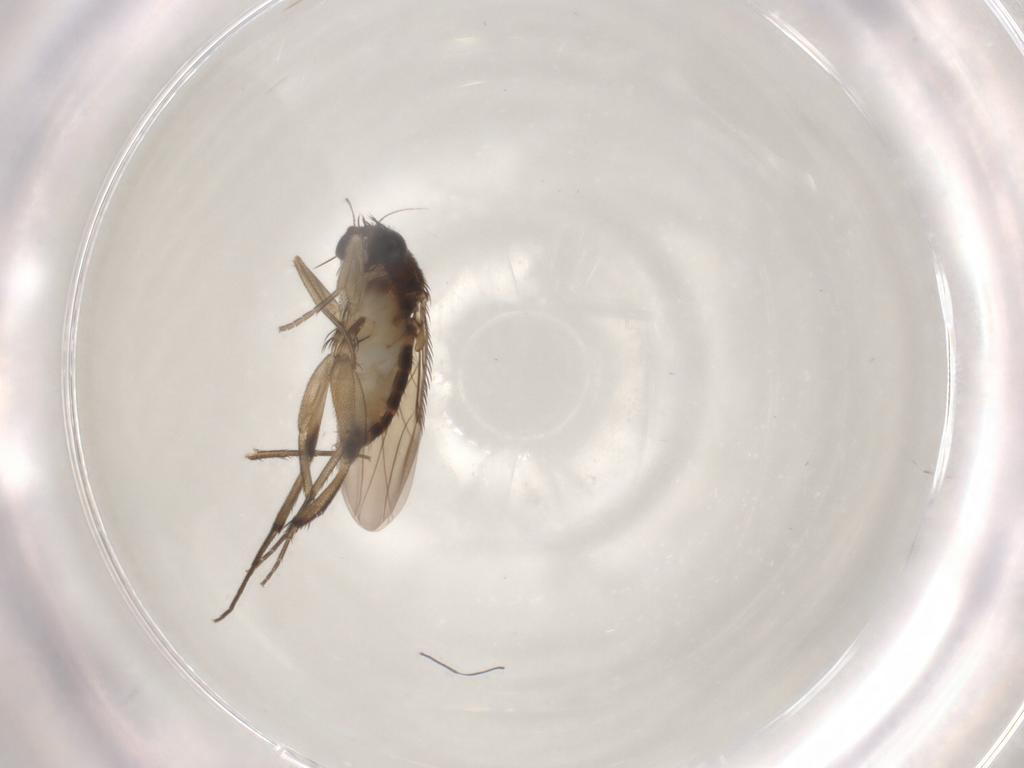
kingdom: Animalia
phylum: Arthropoda
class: Insecta
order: Diptera
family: Phoridae
